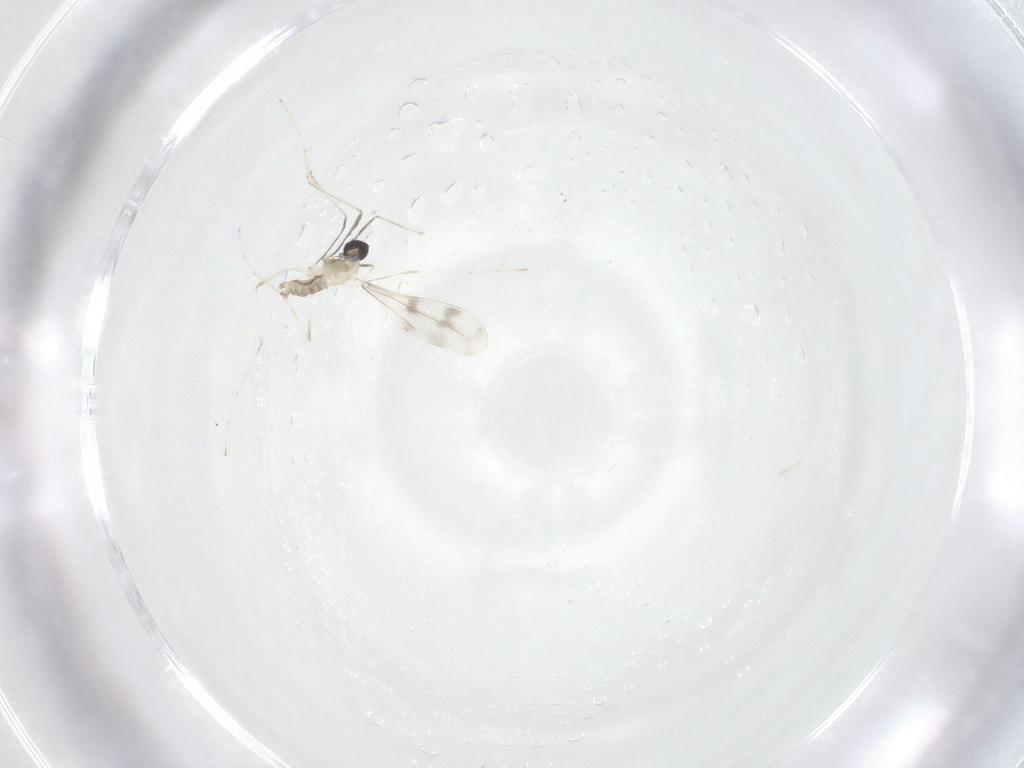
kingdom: Animalia
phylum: Arthropoda
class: Insecta
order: Diptera
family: Cecidomyiidae
